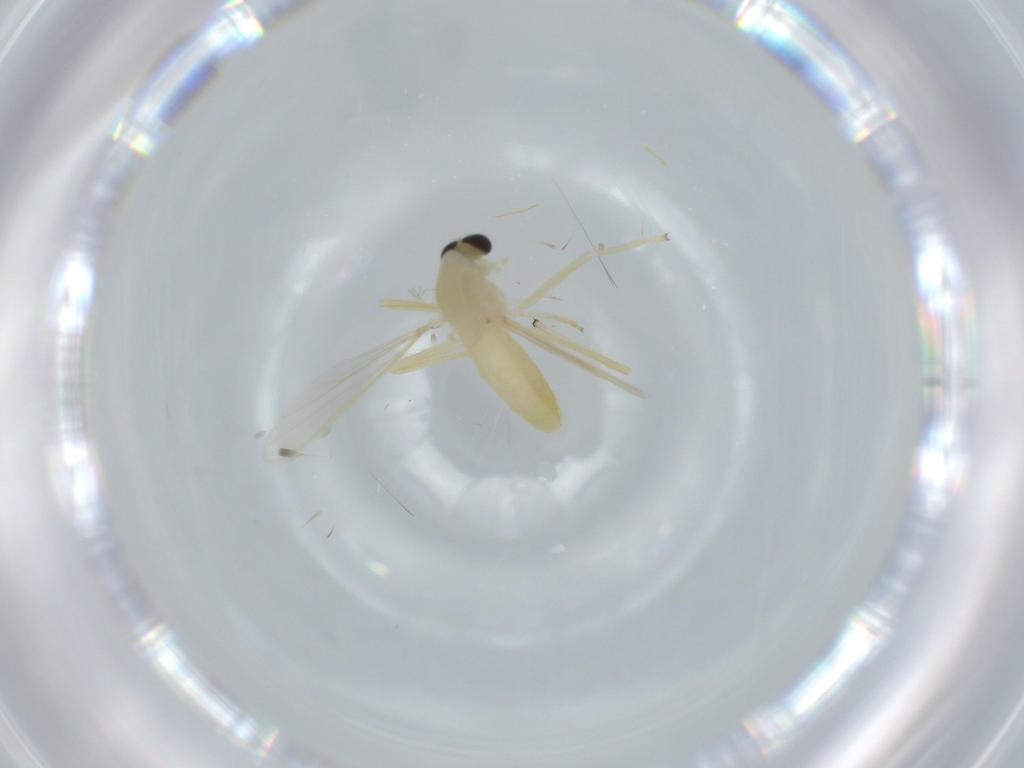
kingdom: Animalia
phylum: Arthropoda
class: Insecta
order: Diptera
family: Chironomidae
